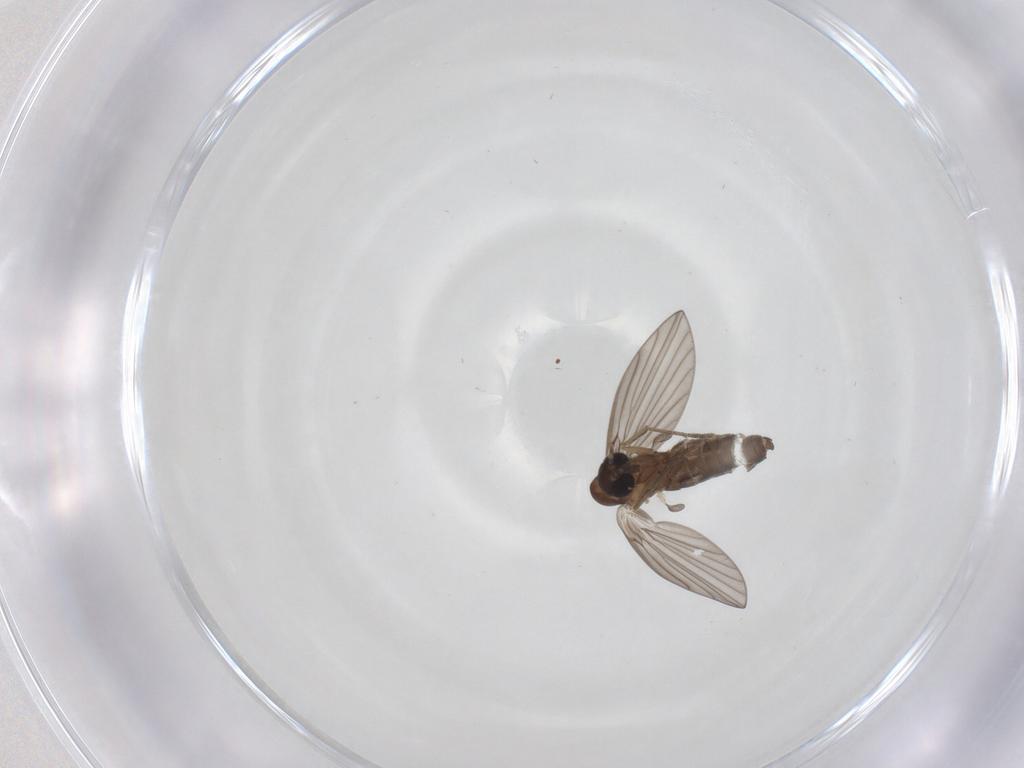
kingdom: Animalia
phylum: Arthropoda
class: Insecta
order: Diptera
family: Psychodidae
